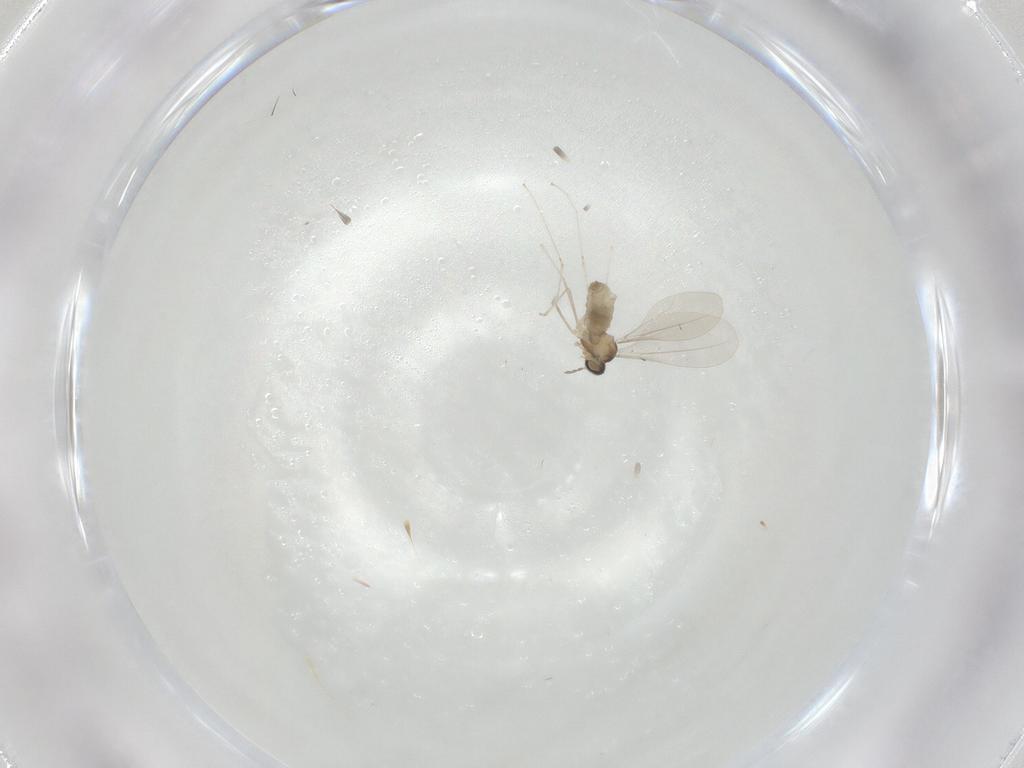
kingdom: Animalia
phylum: Arthropoda
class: Insecta
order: Diptera
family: Cecidomyiidae
